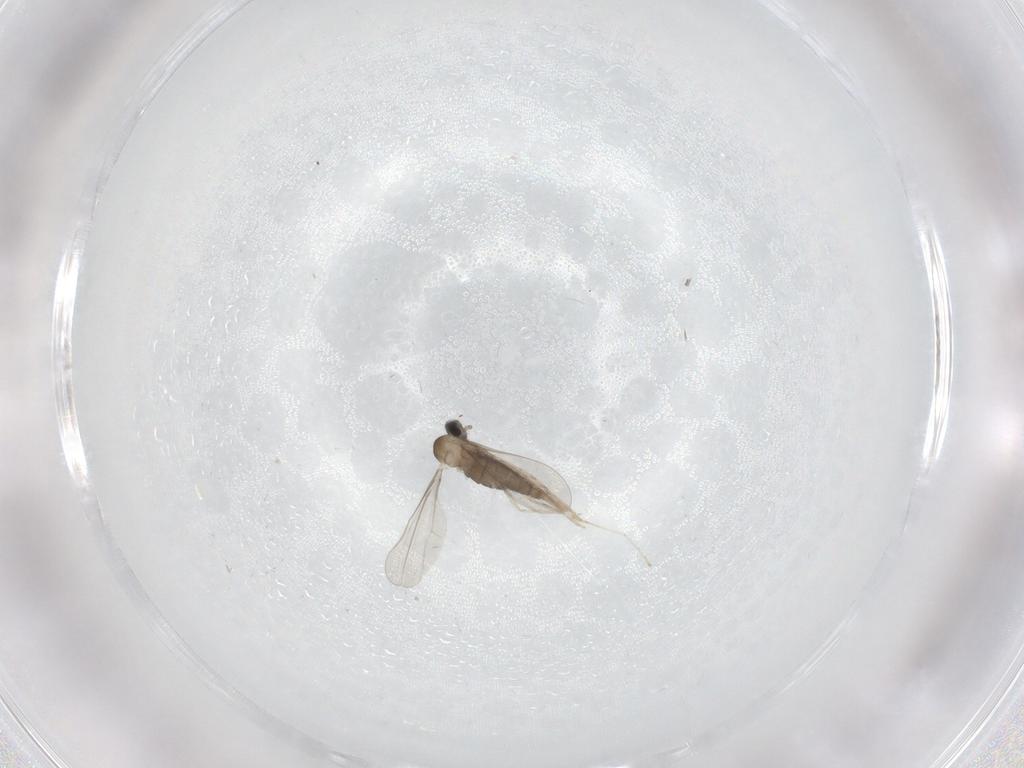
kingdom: Animalia
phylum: Arthropoda
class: Insecta
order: Diptera
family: Cecidomyiidae
